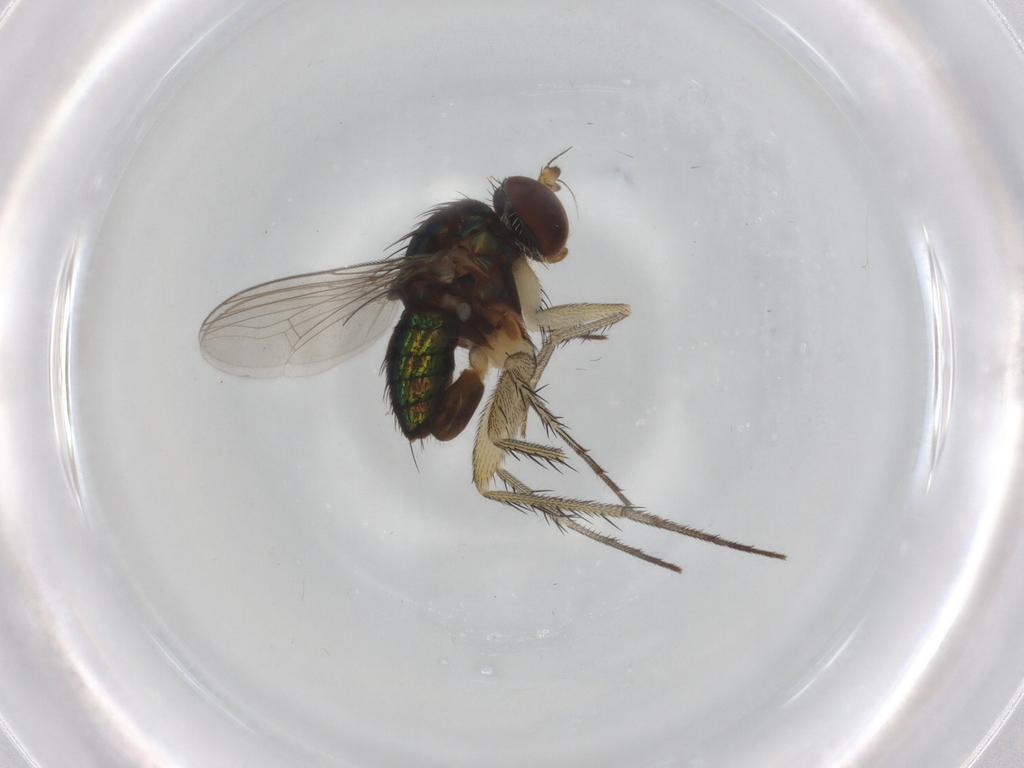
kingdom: Animalia
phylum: Arthropoda
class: Insecta
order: Diptera
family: Dolichopodidae
